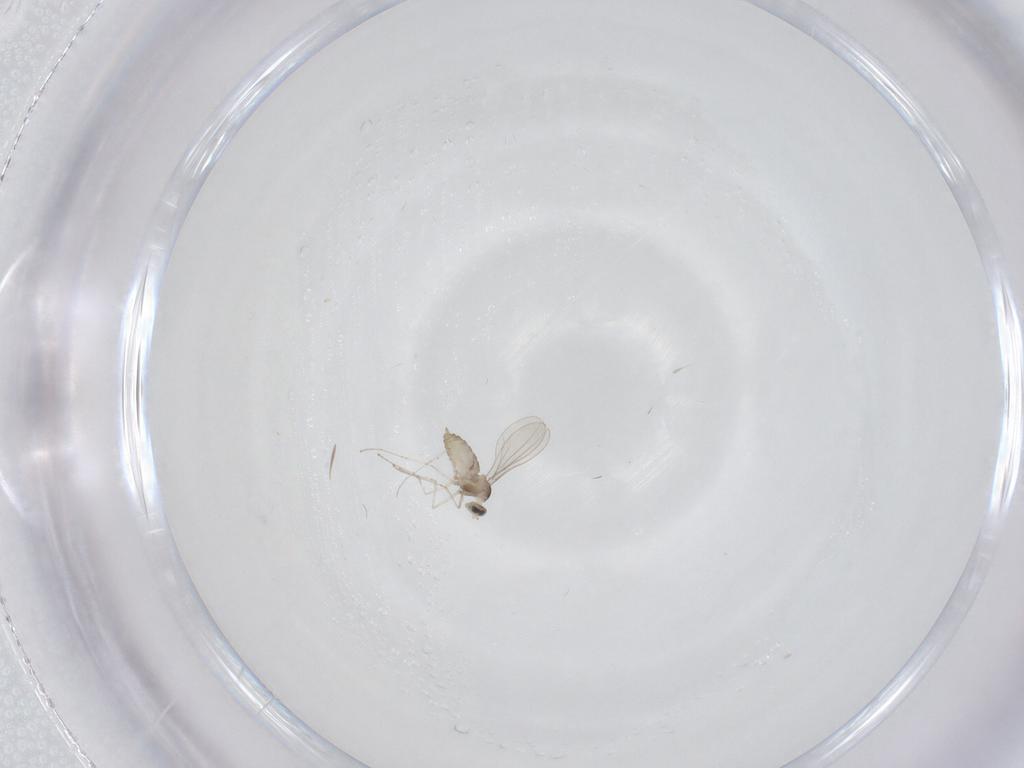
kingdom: Animalia
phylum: Arthropoda
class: Insecta
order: Diptera
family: Cecidomyiidae
